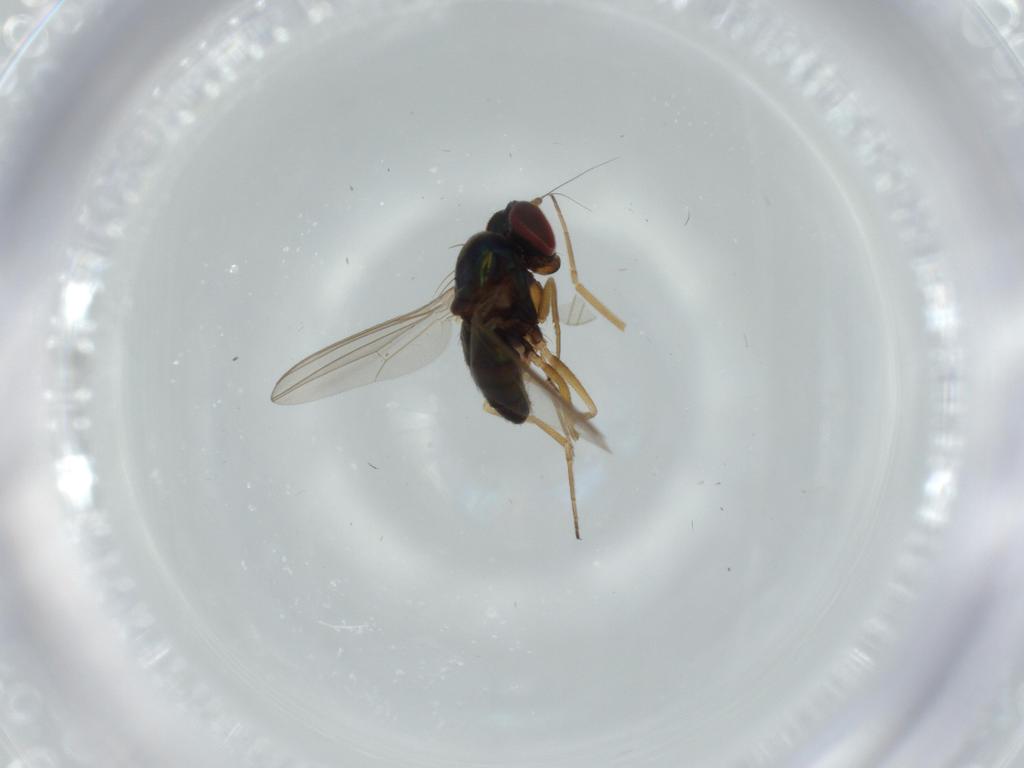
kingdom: Animalia
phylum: Arthropoda
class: Insecta
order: Diptera
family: Dolichopodidae
